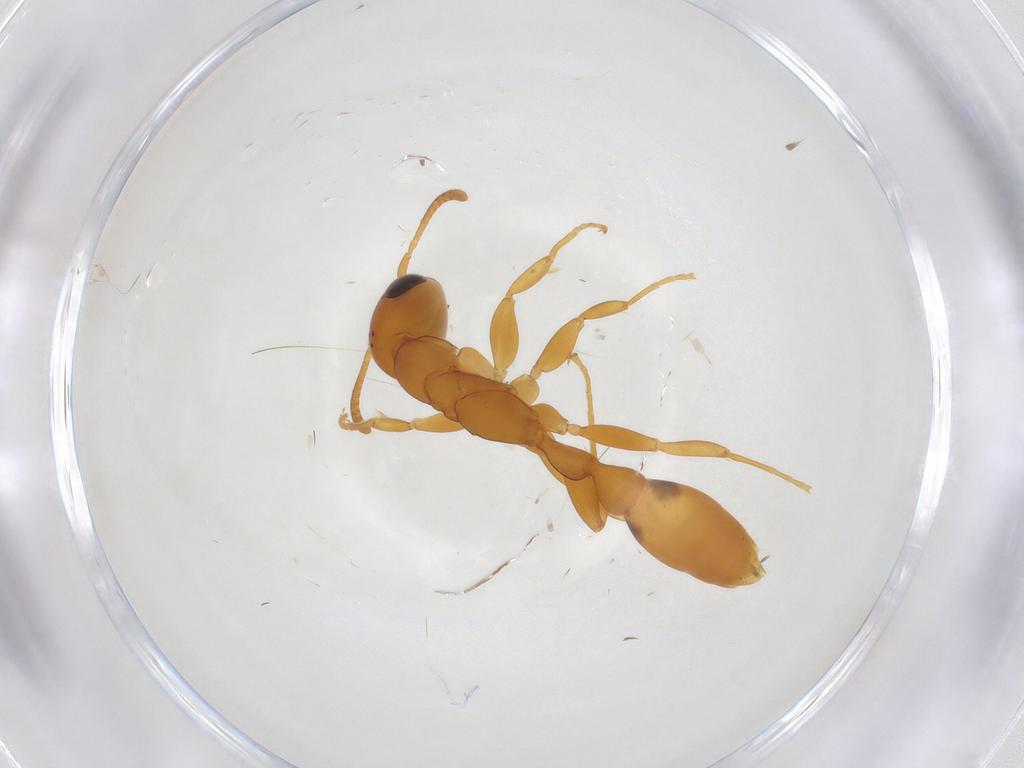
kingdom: Animalia
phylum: Arthropoda
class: Insecta
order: Hymenoptera
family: Formicidae
